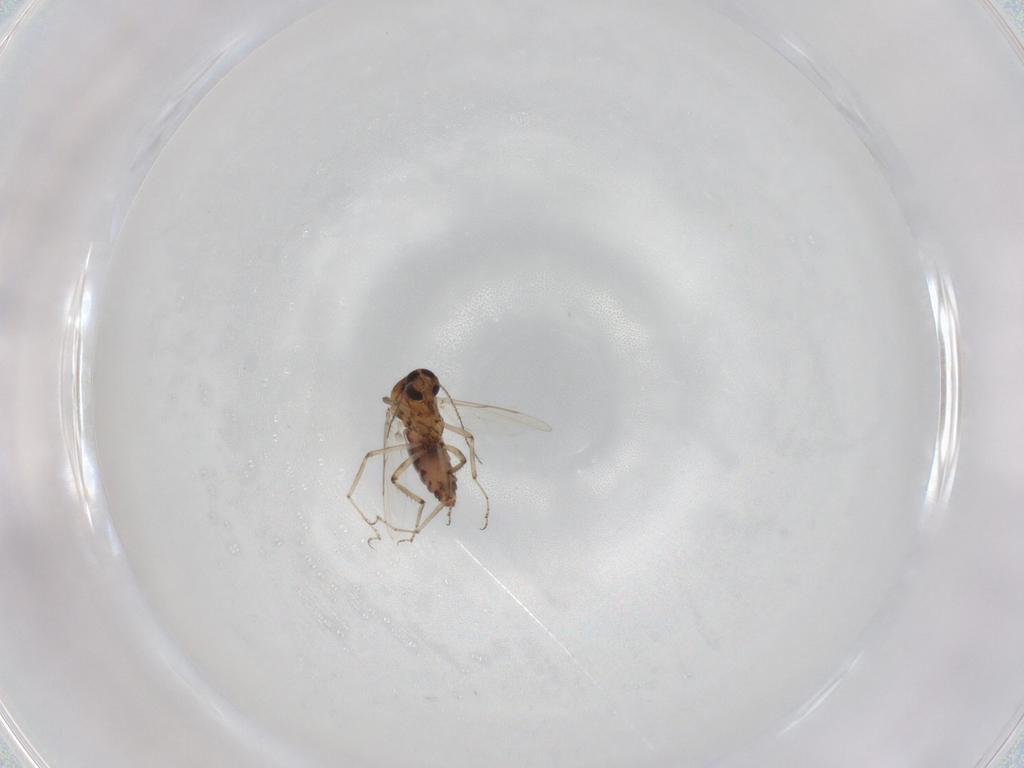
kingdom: Animalia
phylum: Arthropoda
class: Insecta
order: Diptera
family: Ceratopogonidae
